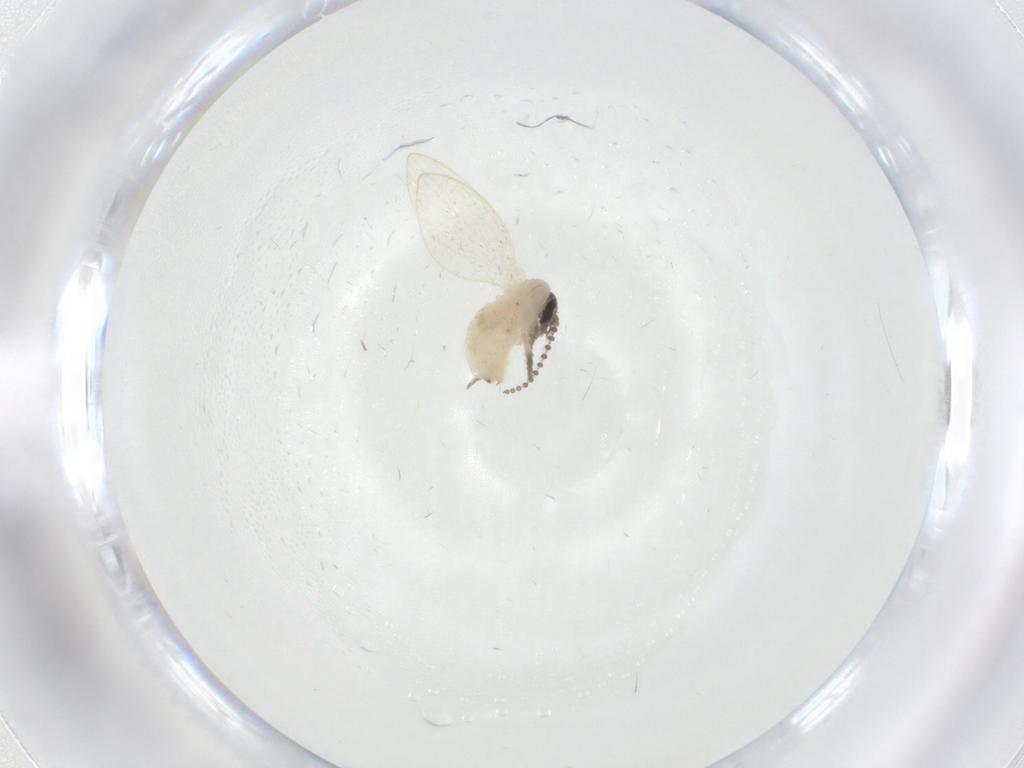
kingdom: Animalia
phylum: Arthropoda
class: Insecta
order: Diptera
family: Psychodidae
